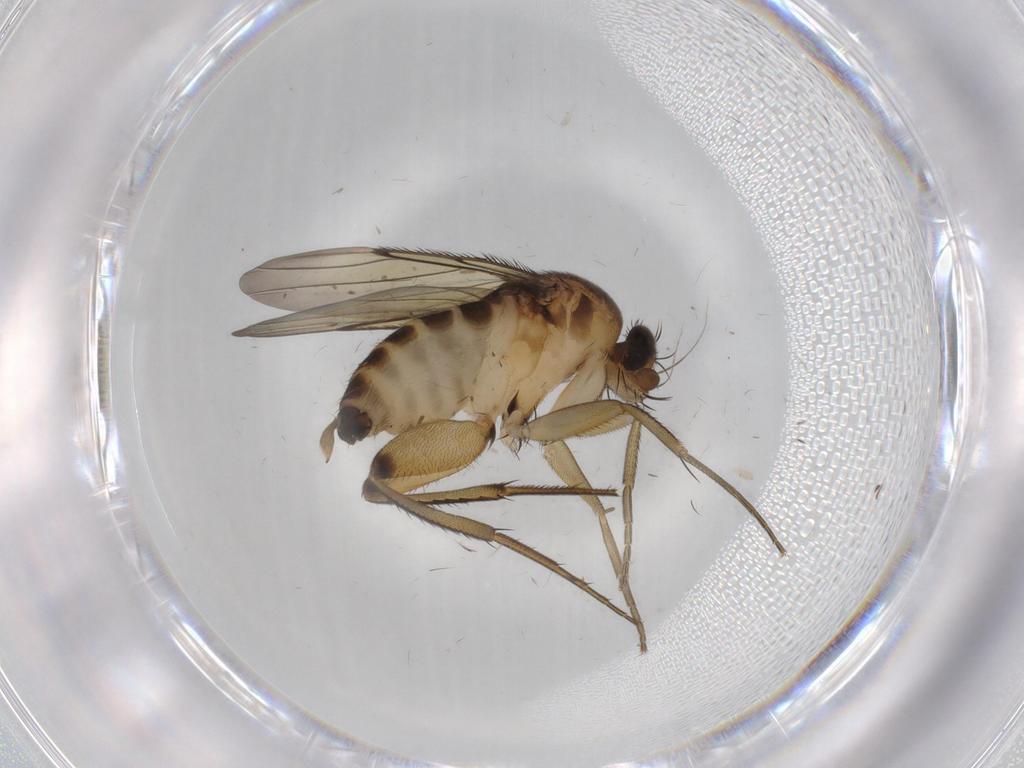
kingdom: Animalia
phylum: Arthropoda
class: Insecta
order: Diptera
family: Phoridae
